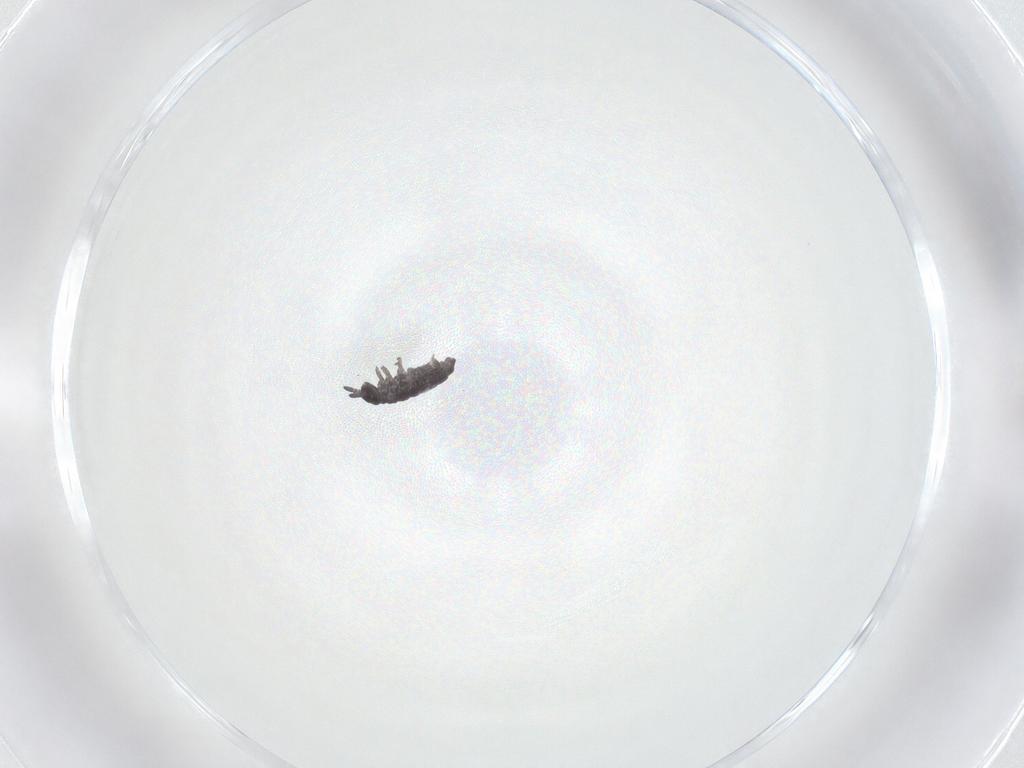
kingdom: Animalia
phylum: Arthropoda
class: Collembola
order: Poduromorpha
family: Hypogastruridae
